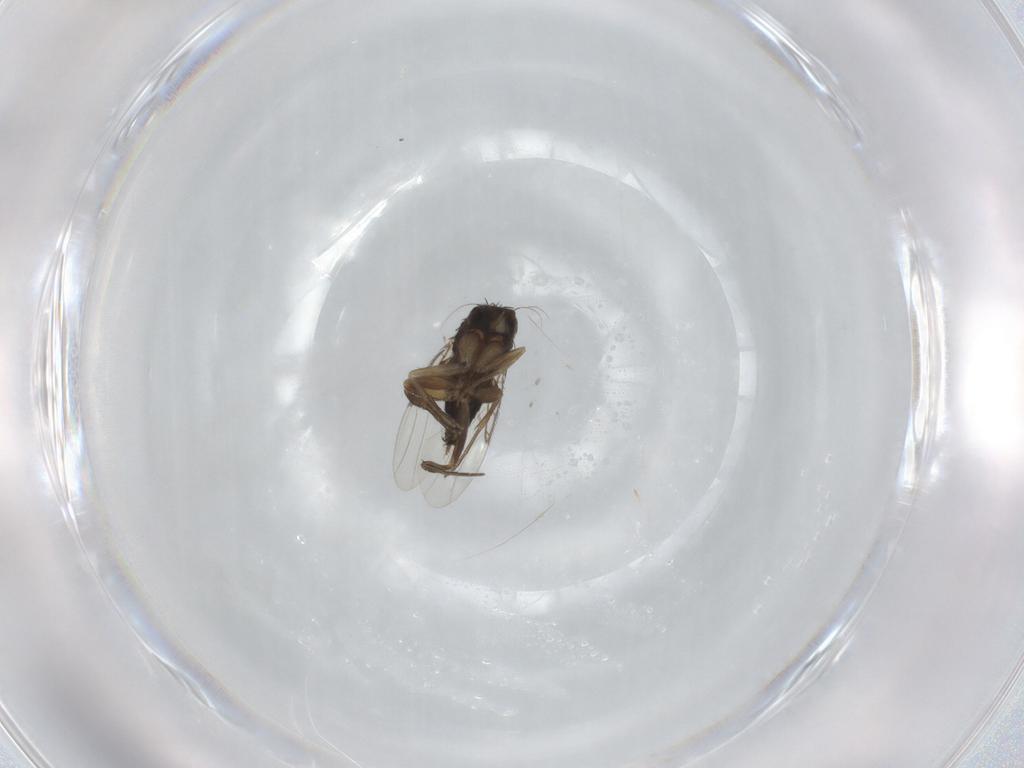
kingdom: Animalia
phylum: Arthropoda
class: Insecta
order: Diptera
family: Phoridae
